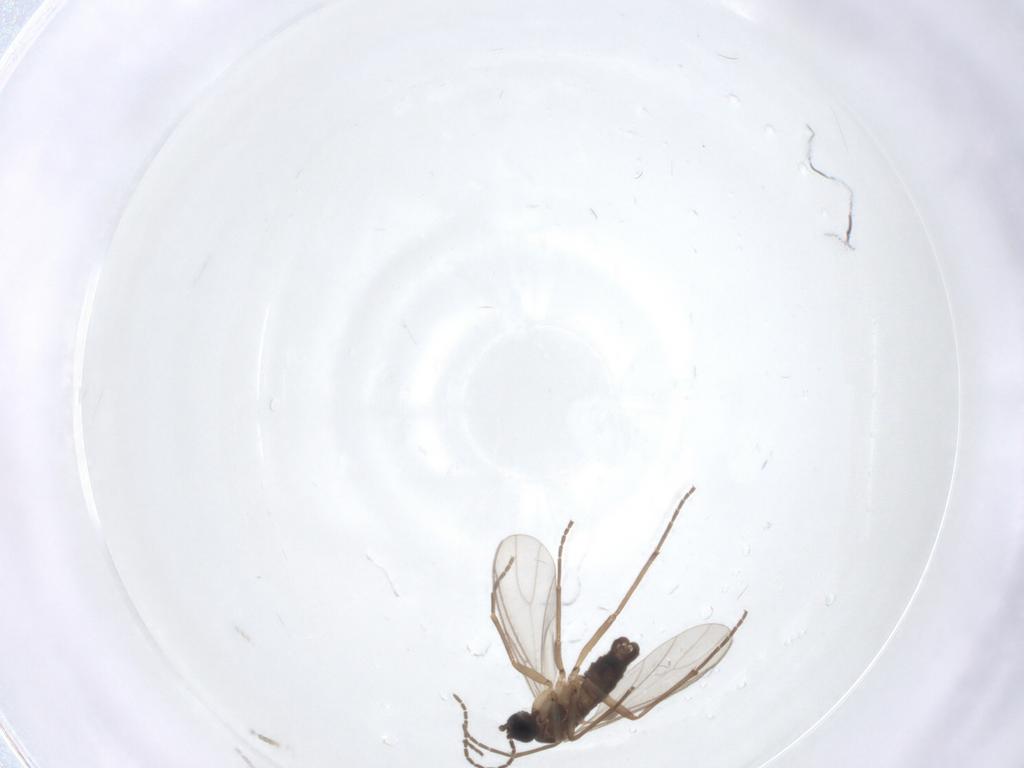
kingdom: Animalia
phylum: Arthropoda
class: Insecta
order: Diptera
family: Sciaridae
